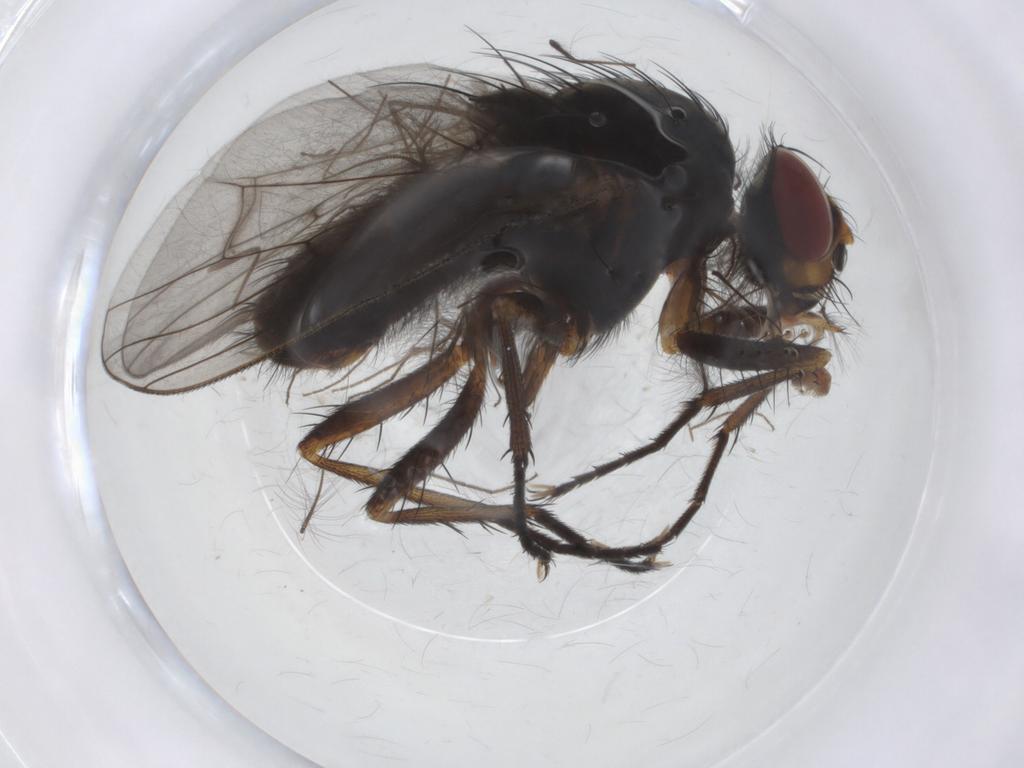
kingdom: Animalia
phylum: Arthropoda
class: Insecta
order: Diptera
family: Anthomyiidae
